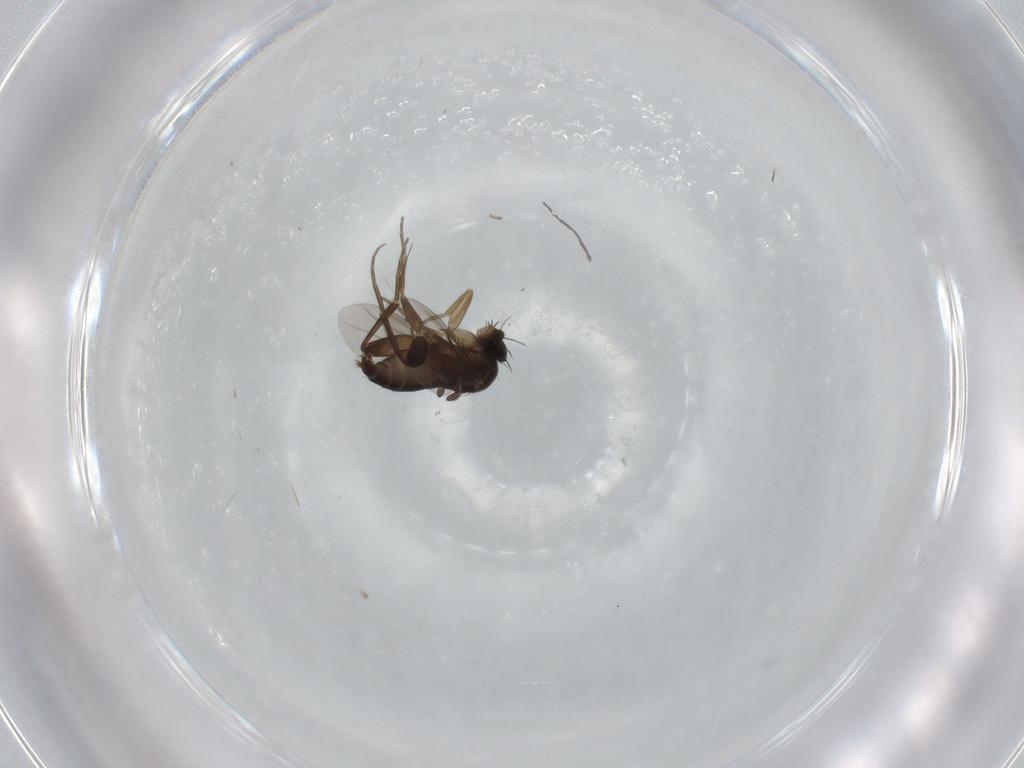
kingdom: Animalia
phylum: Arthropoda
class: Insecta
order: Diptera
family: Phoridae
